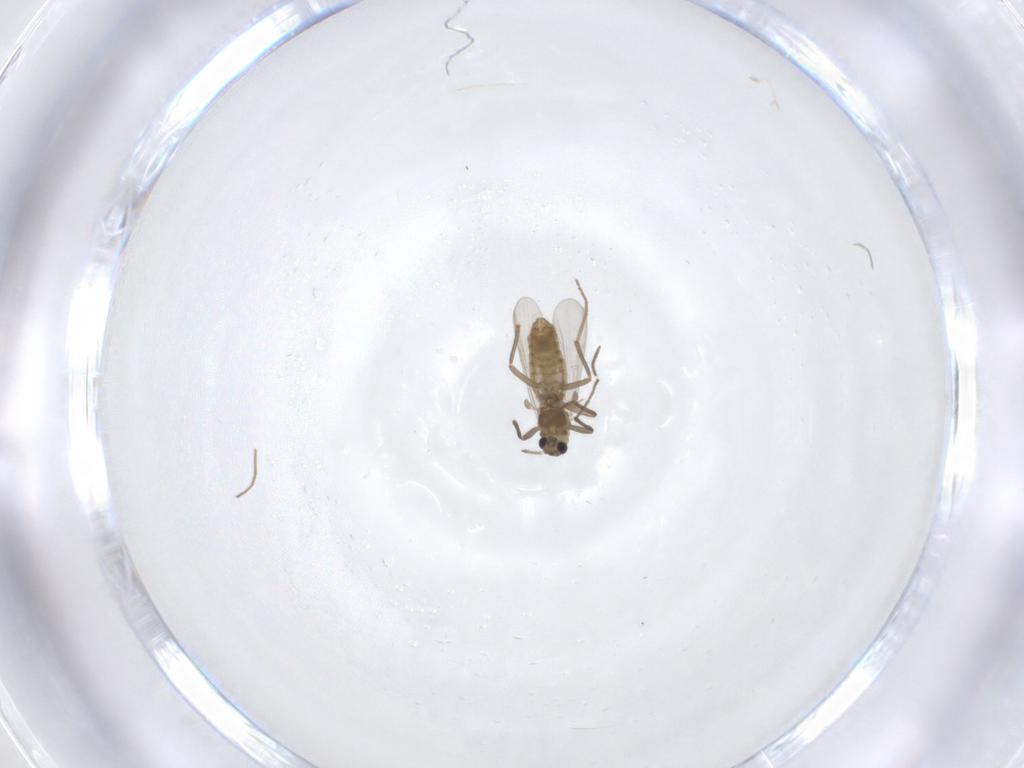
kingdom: Animalia
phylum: Arthropoda
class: Insecta
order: Diptera
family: Chironomidae
